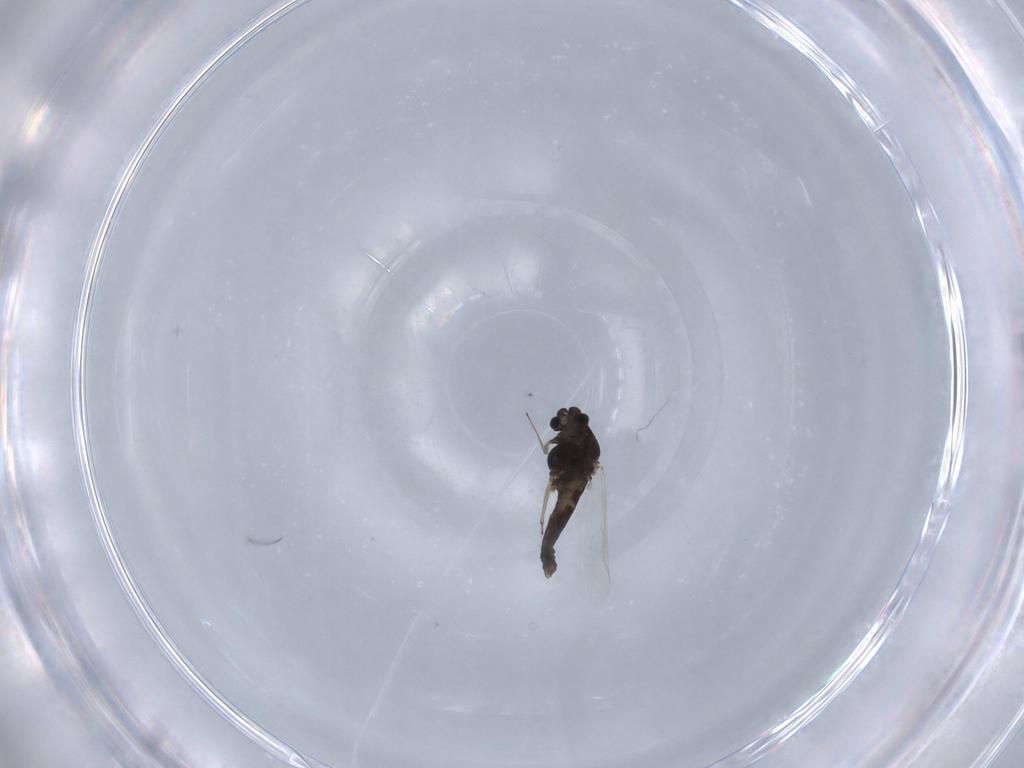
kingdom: Animalia
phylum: Arthropoda
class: Insecta
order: Diptera
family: Chironomidae
